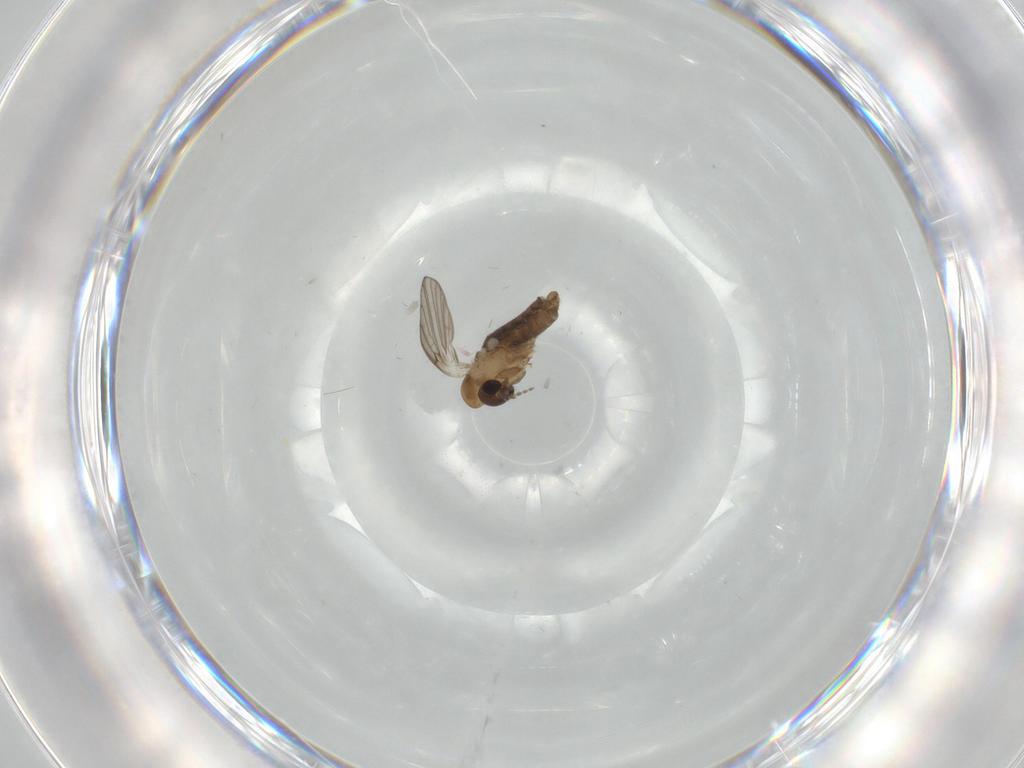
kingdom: Animalia
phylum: Arthropoda
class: Insecta
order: Diptera
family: Psychodidae
